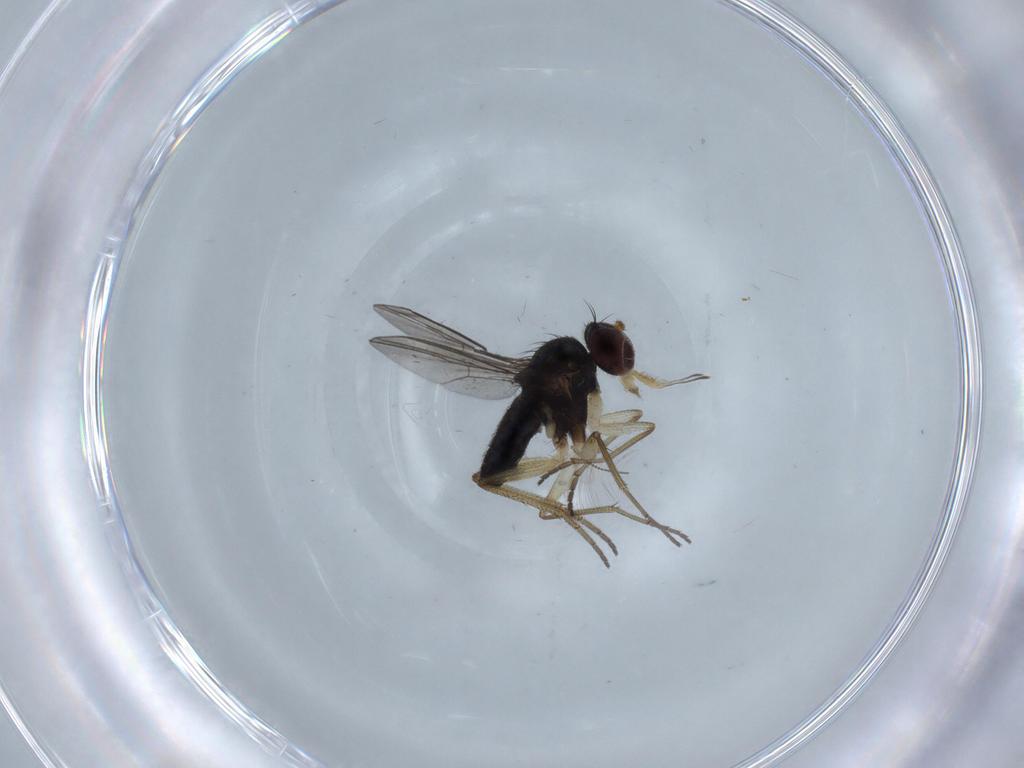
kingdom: Animalia
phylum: Arthropoda
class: Insecta
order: Diptera
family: Dolichopodidae
